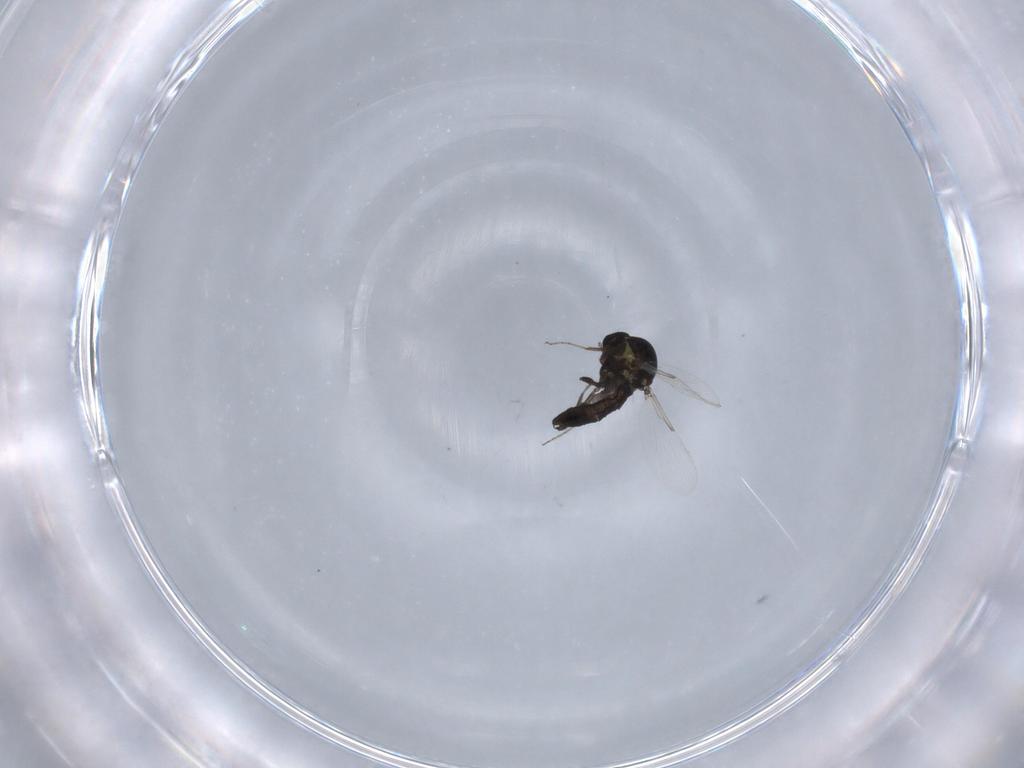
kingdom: Animalia
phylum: Arthropoda
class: Insecta
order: Diptera
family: Ceratopogonidae
